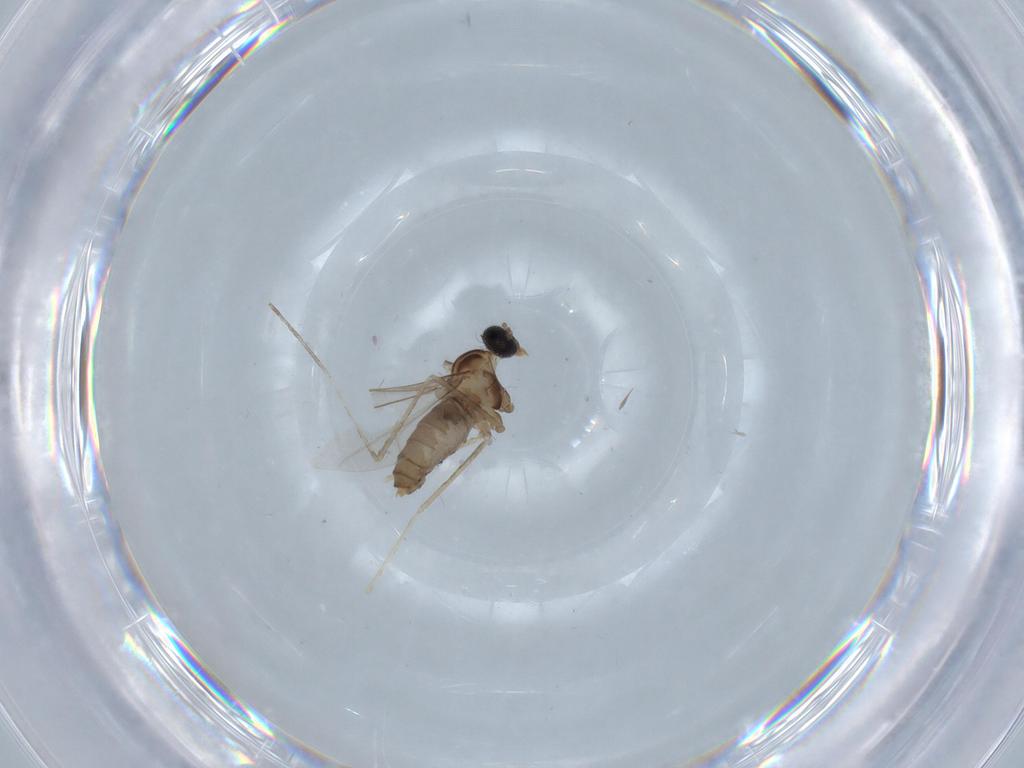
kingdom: Animalia
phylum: Arthropoda
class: Insecta
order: Diptera
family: Cecidomyiidae
